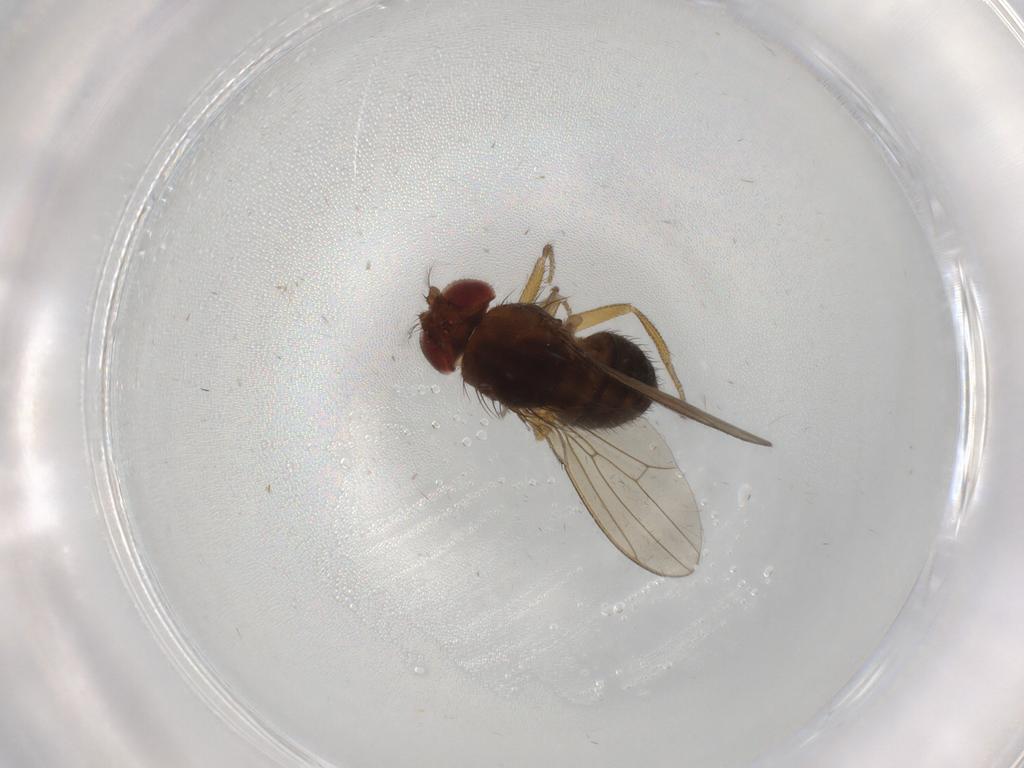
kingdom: Animalia
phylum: Arthropoda
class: Insecta
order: Diptera
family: Drosophilidae
